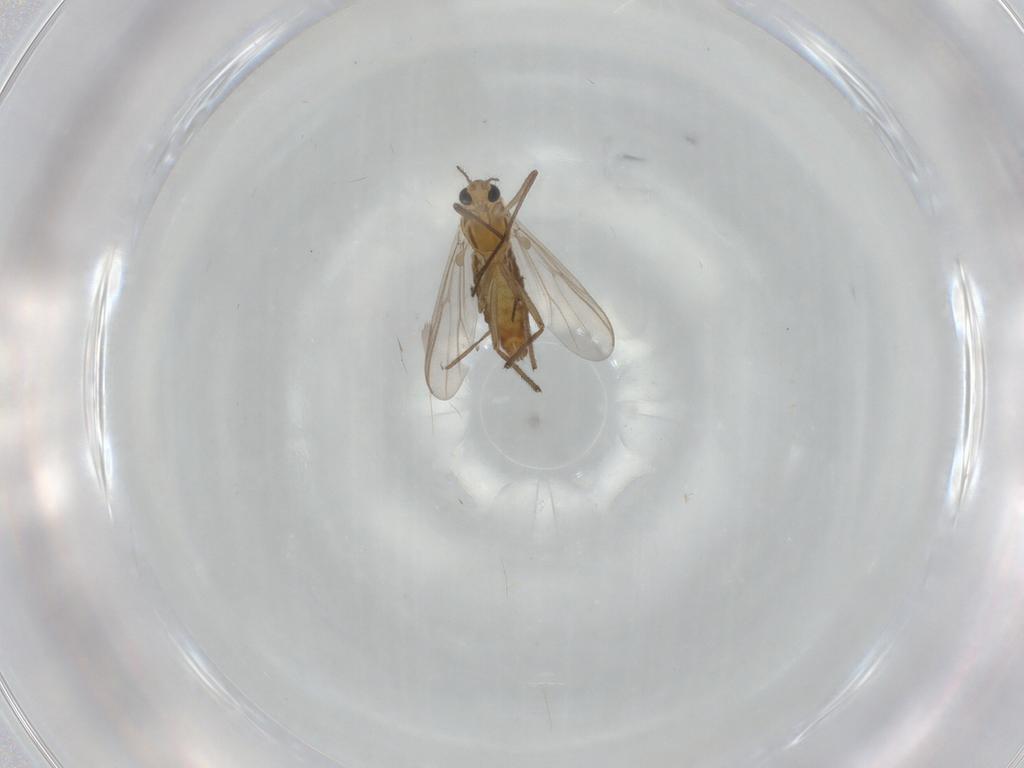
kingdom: Animalia
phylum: Arthropoda
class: Insecta
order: Diptera
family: Chironomidae
